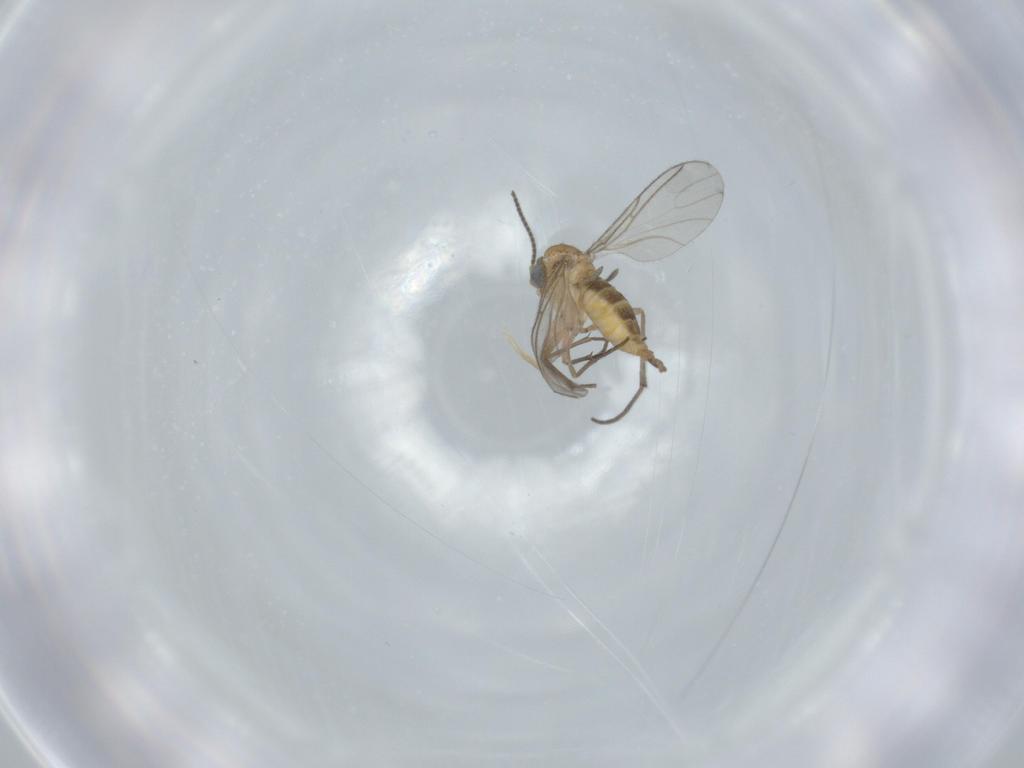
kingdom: Animalia
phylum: Arthropoda
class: Insecta
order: Diptera
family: Sciaridae
